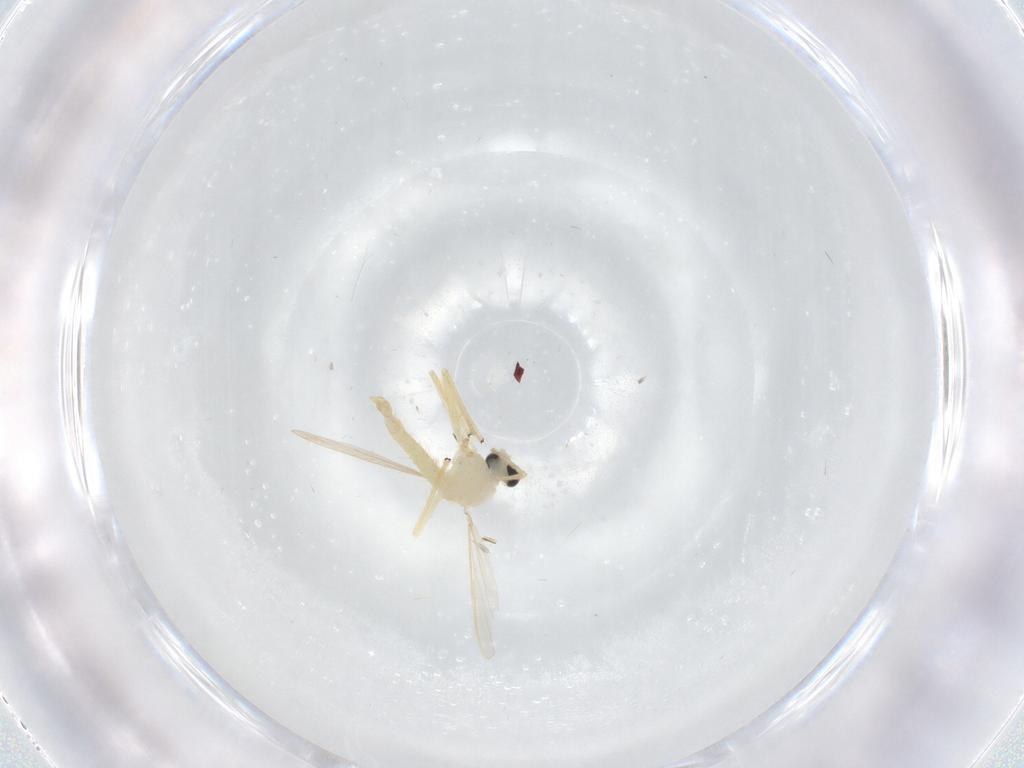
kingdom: Animalia
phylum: Arthropoda
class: Insecta
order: Diptera
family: Chironomidae
